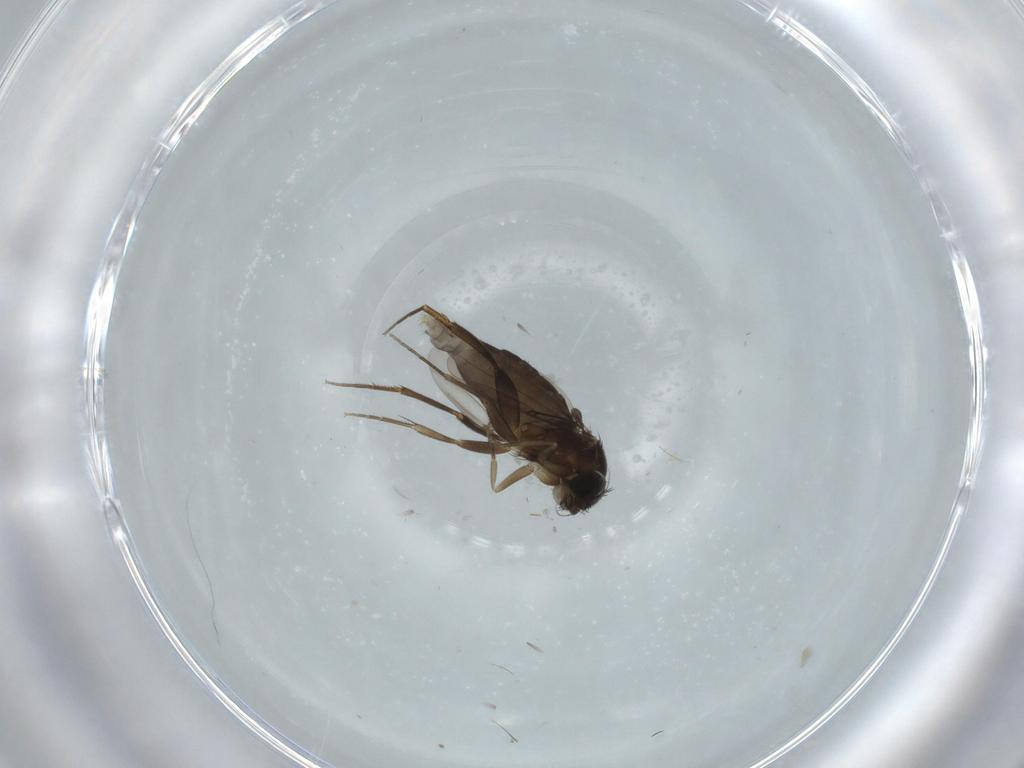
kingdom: Animalia
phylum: Arthropoda
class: Insecta
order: Diptera
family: Phoridae
